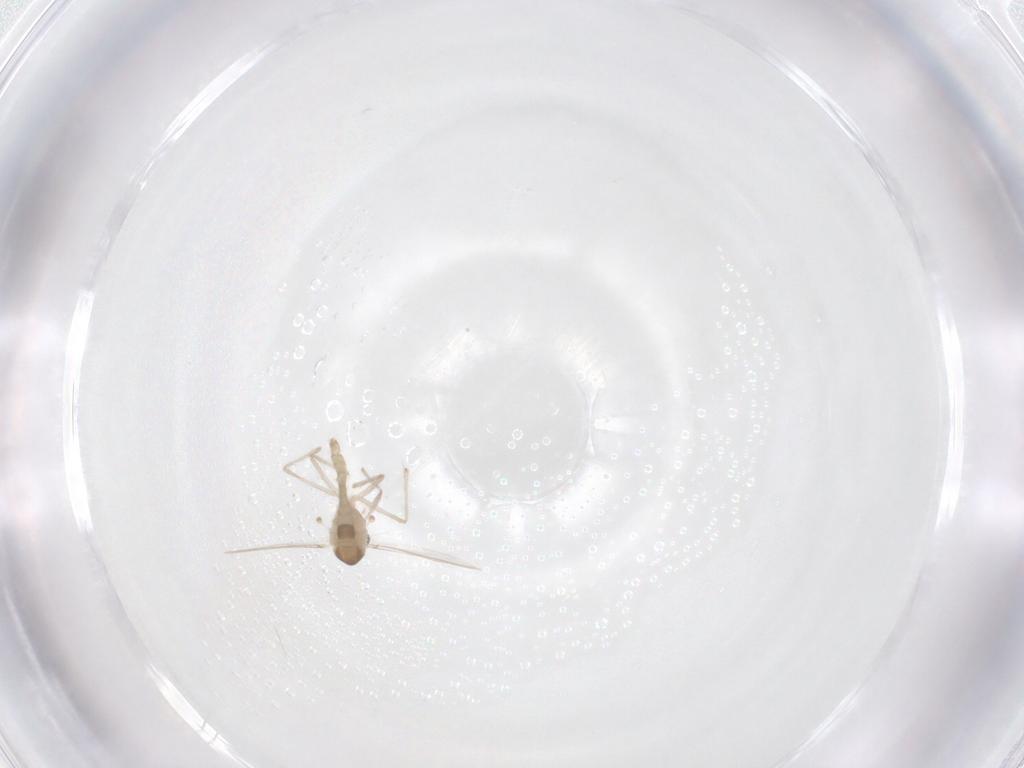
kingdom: Animalia
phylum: Arthropoda
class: Insecta
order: Diptera
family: Chironomidae
